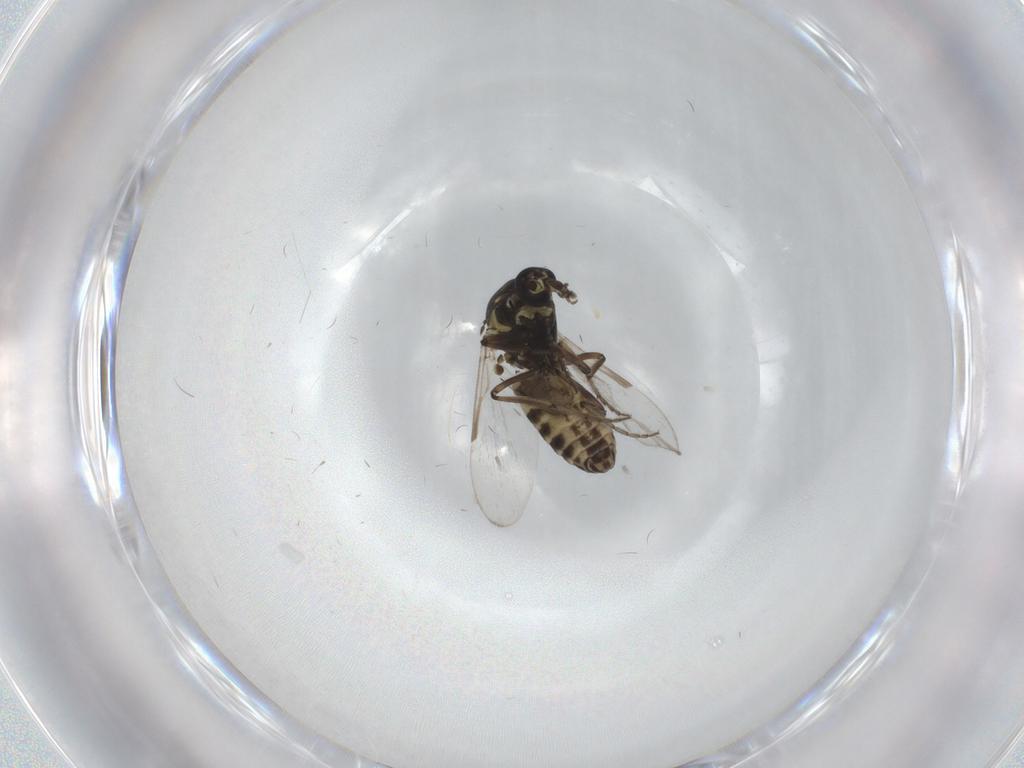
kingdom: Animalia
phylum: Arthropoda
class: Insecta
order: Diptera
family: Ceratopogonidae
